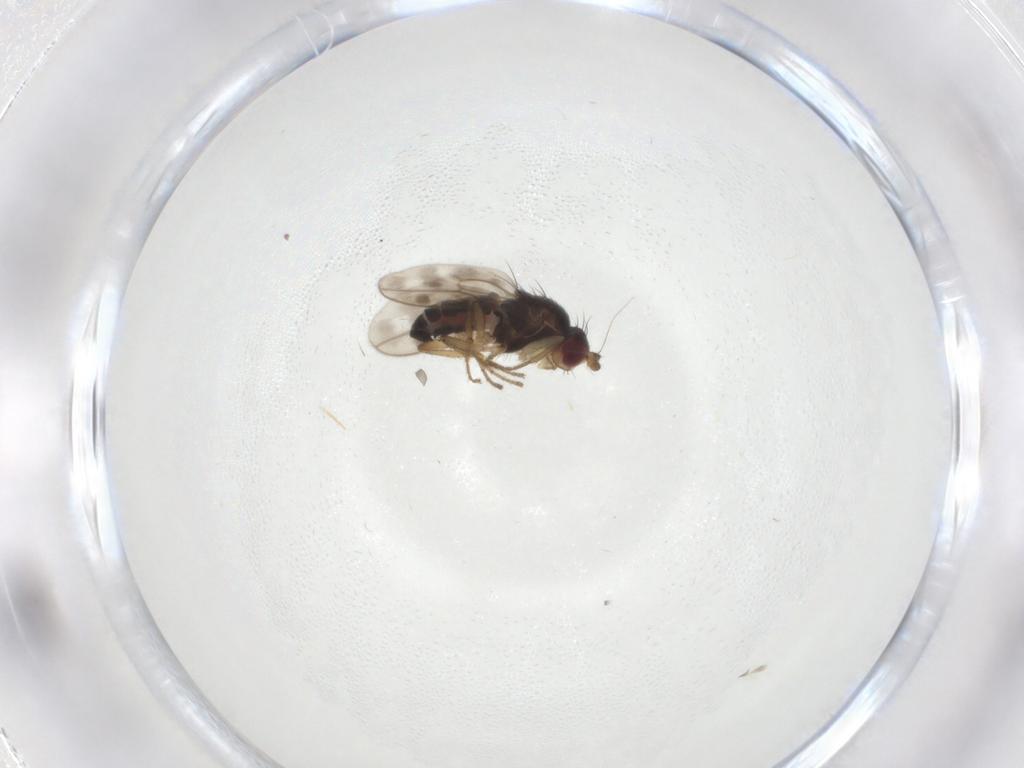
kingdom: Animalia
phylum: Arthropoda
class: Insecta
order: Diptera
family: Sphaeroceridae
